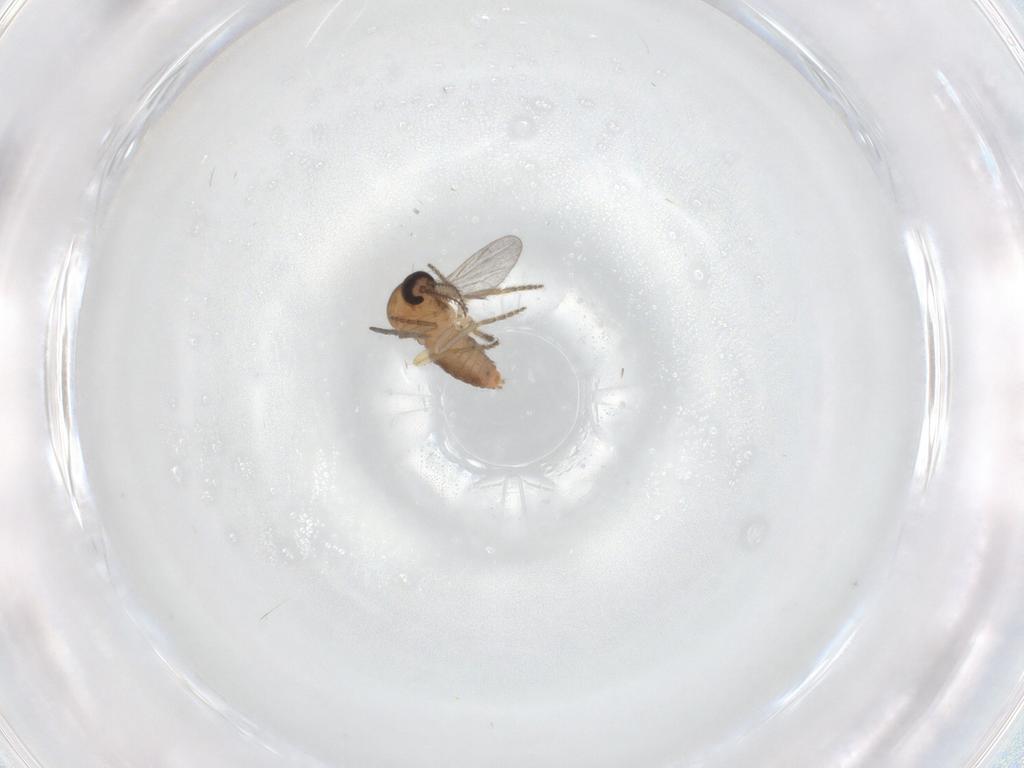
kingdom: Animalia
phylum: Arthropoda
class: Insecta
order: Diptera
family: Ceratopogonidae
